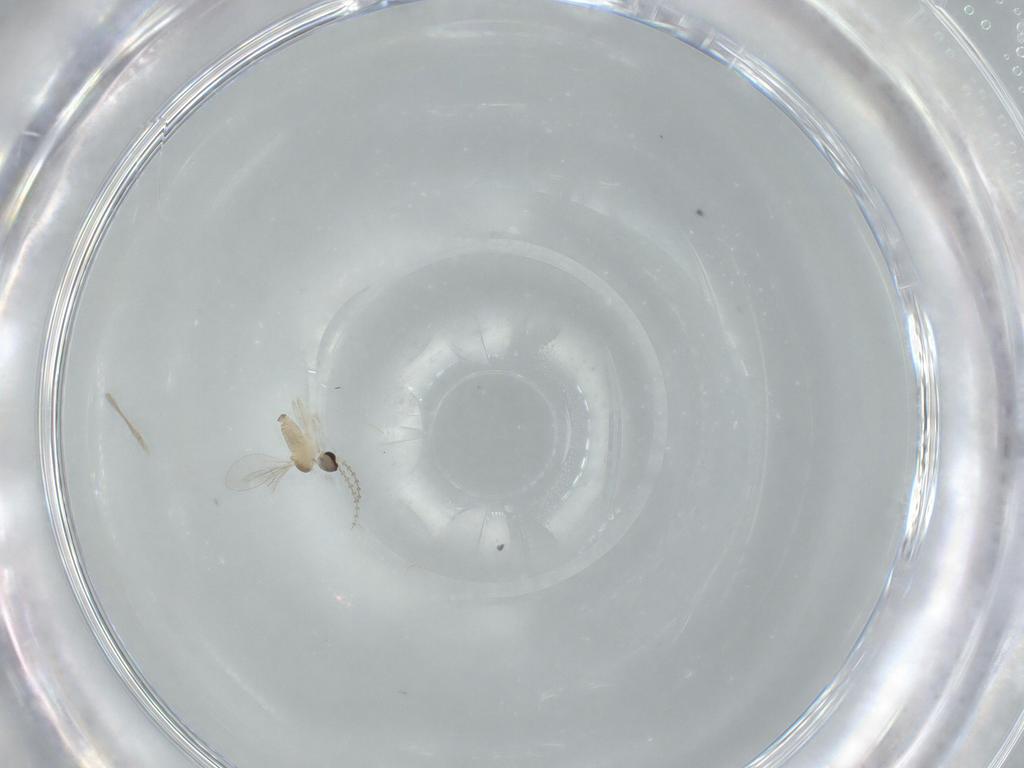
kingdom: Animalia
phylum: Arthropoda
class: Insecta
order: Diptera
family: Cecidomyiidae
